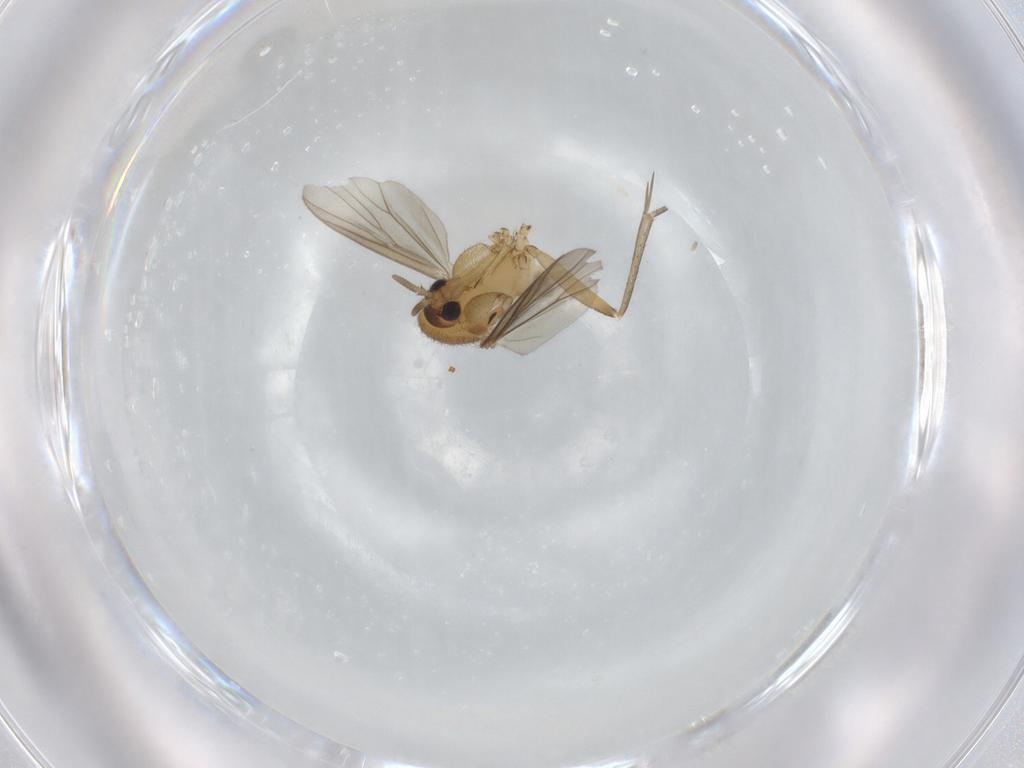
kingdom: Animalia
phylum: Arthropoda
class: Insecta
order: Diptera
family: Mycetophilidae
